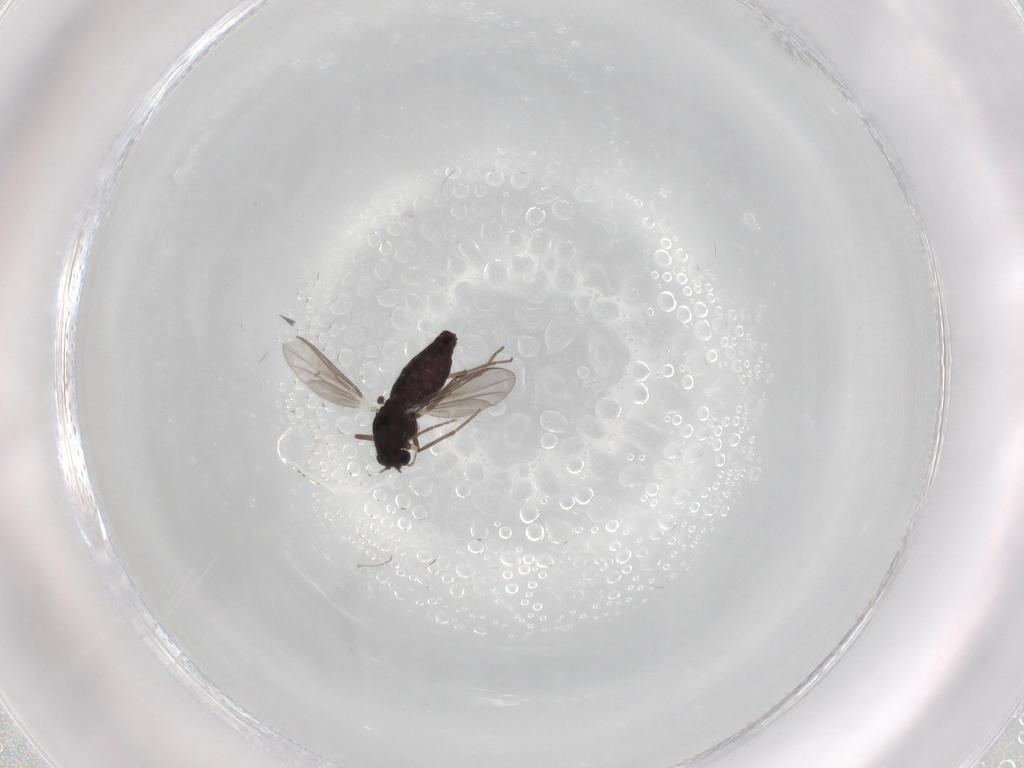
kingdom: Animalia
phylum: Arthropoda
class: Insecta
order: Diptera
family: Chironomidae
